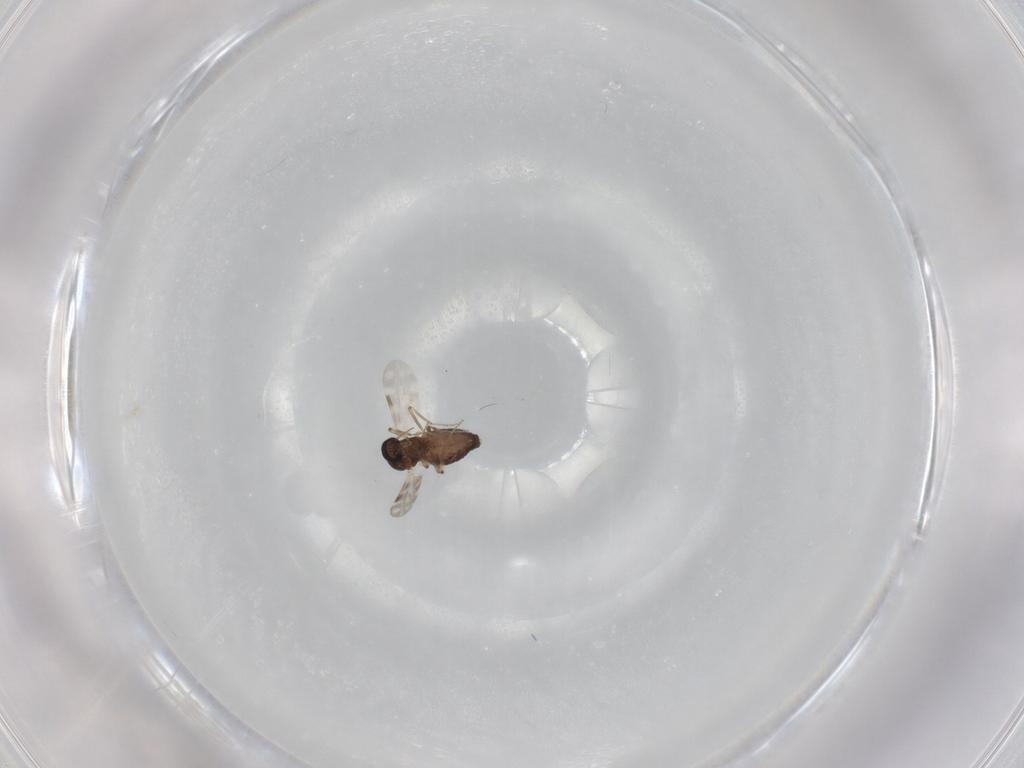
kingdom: Animalia
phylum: Arthropoda
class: Insecta
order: Diptera
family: Ceratopogonidae
